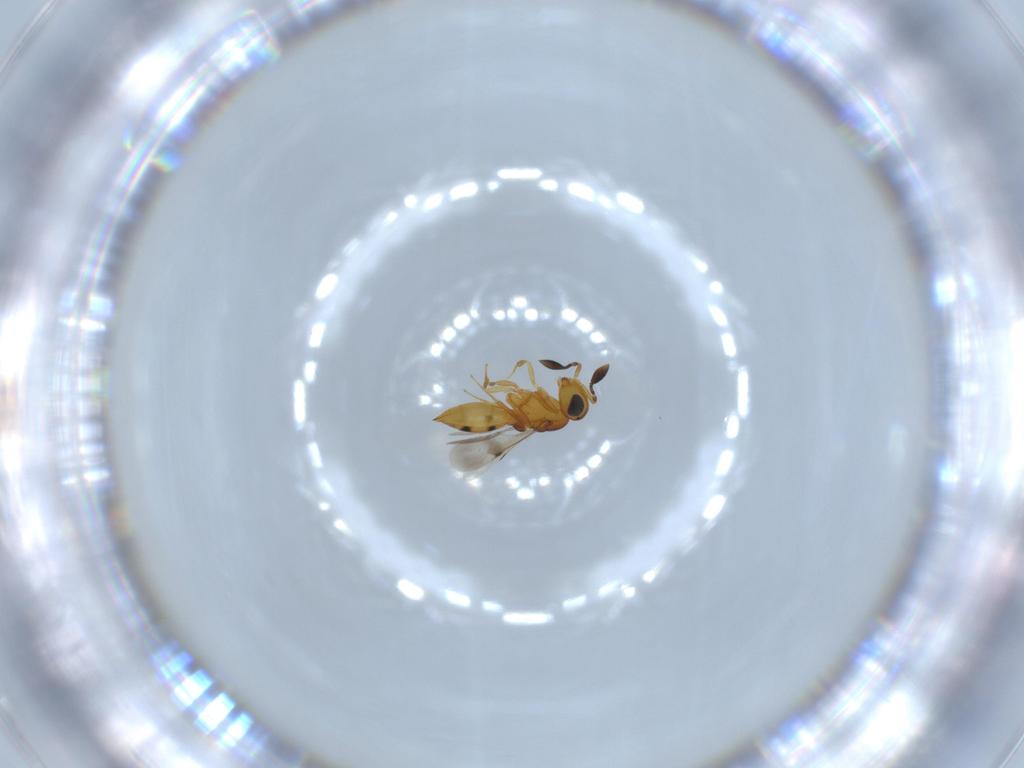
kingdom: Animalia
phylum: Arthropoda
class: Insecta
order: Hymenoptera
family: Scelionidae
